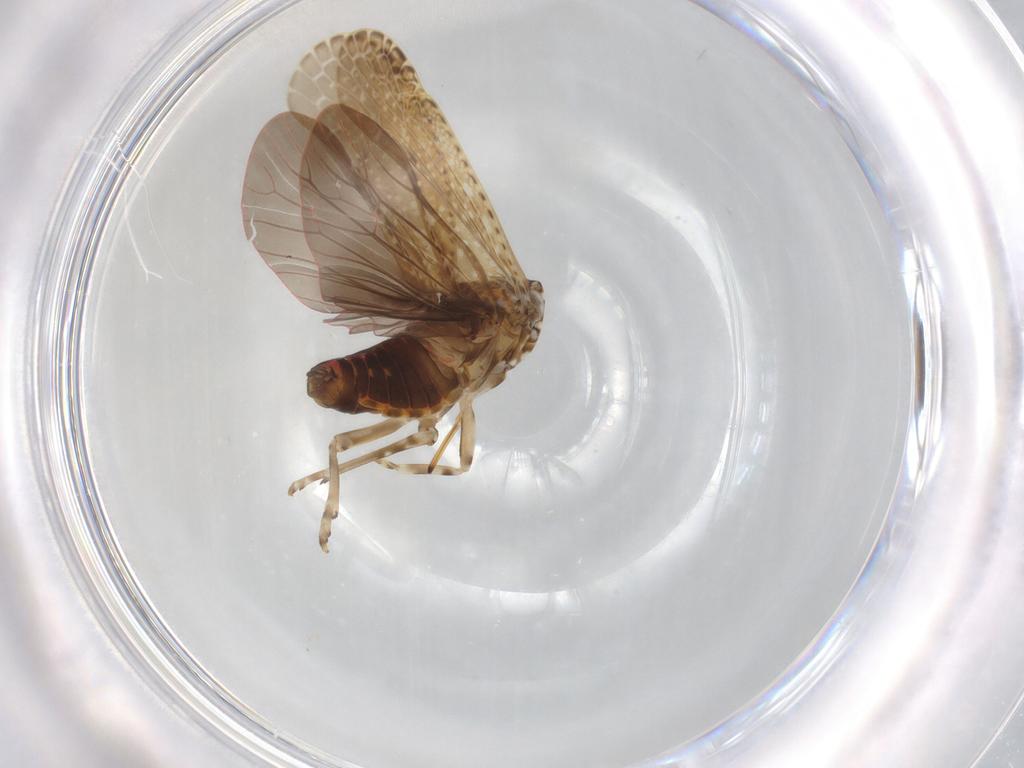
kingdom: Animalia
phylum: Arthropoda
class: Insecta
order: Hemiptera
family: Achilidae
